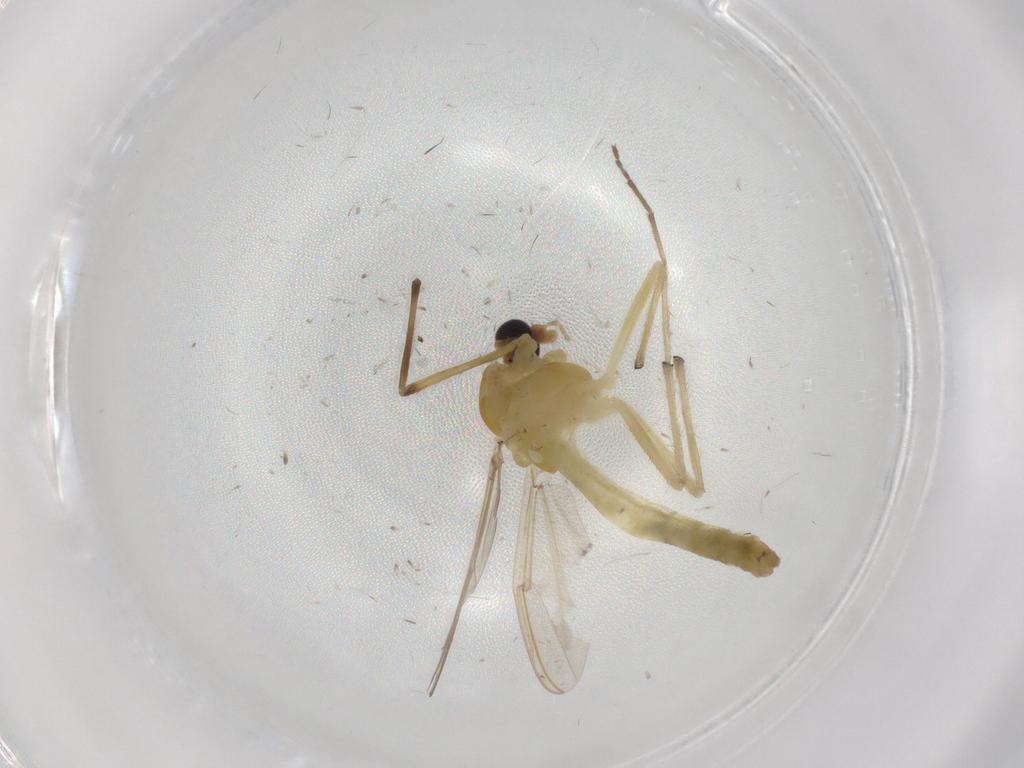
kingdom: Animalia
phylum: Arthropoda
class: Insecta
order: Diptera
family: Chironomidae
